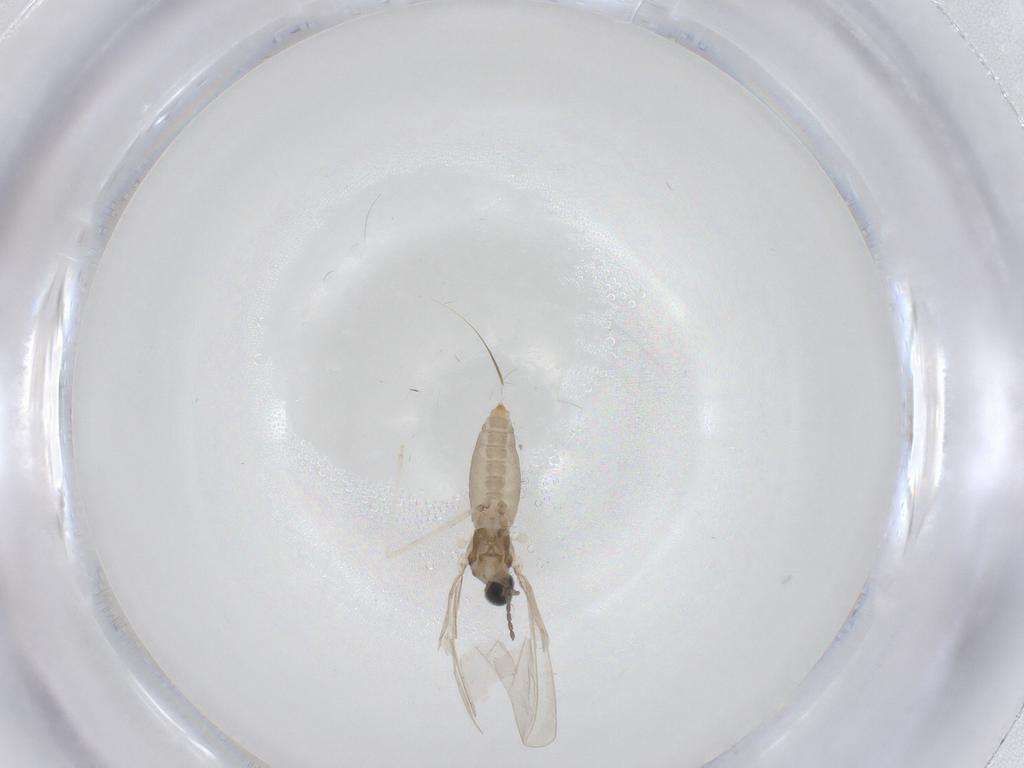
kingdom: Animalia
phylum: Arthropoda
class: Insecta
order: Diptera
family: Cecidomyiidae
